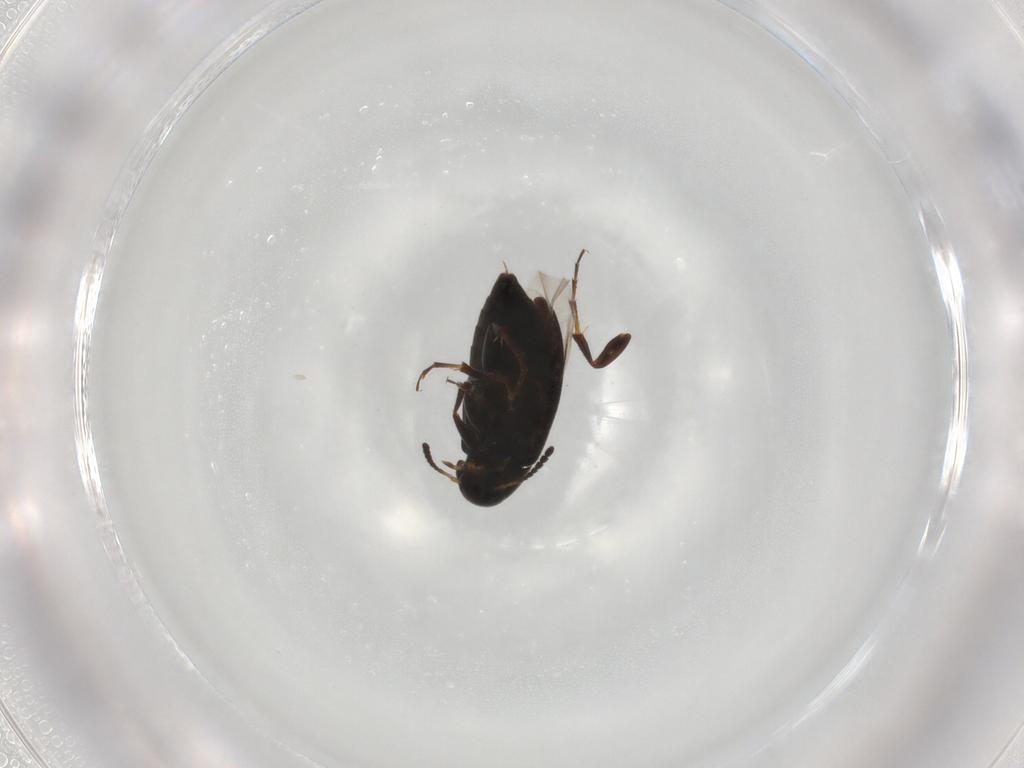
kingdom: Animalia
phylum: Arthropoda
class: Insecta
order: Coleoptera
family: Scraptiidae
